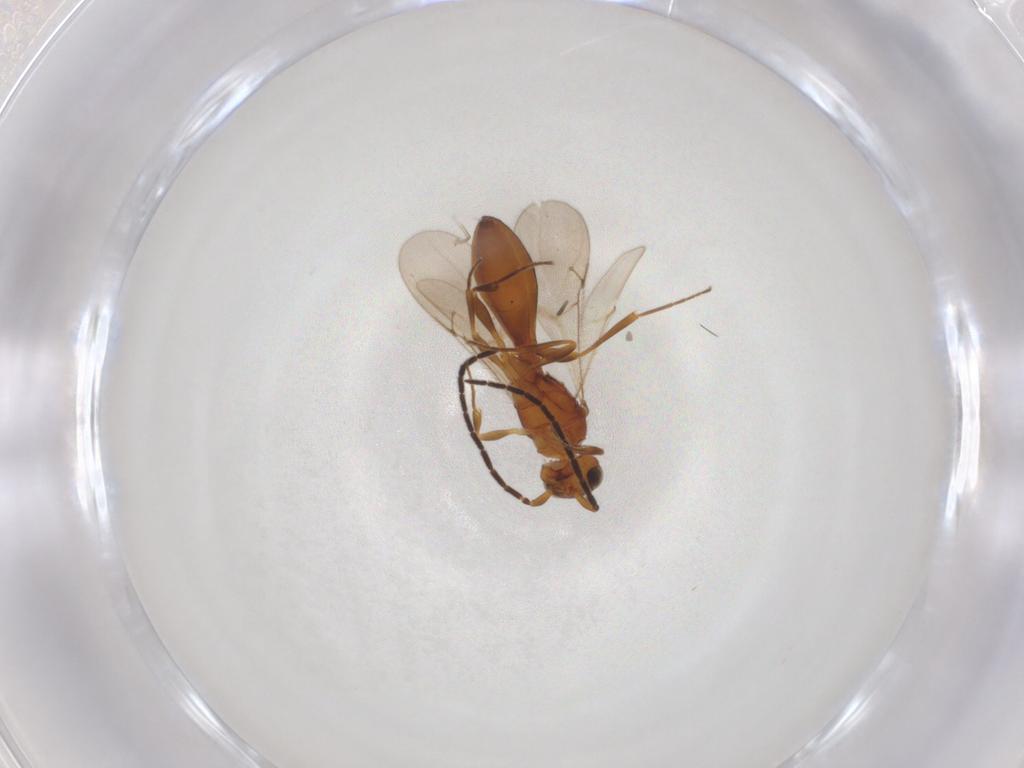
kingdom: Animalia
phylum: Arthropoda
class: Insecta
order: Hymenoptera
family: Scelionidae
